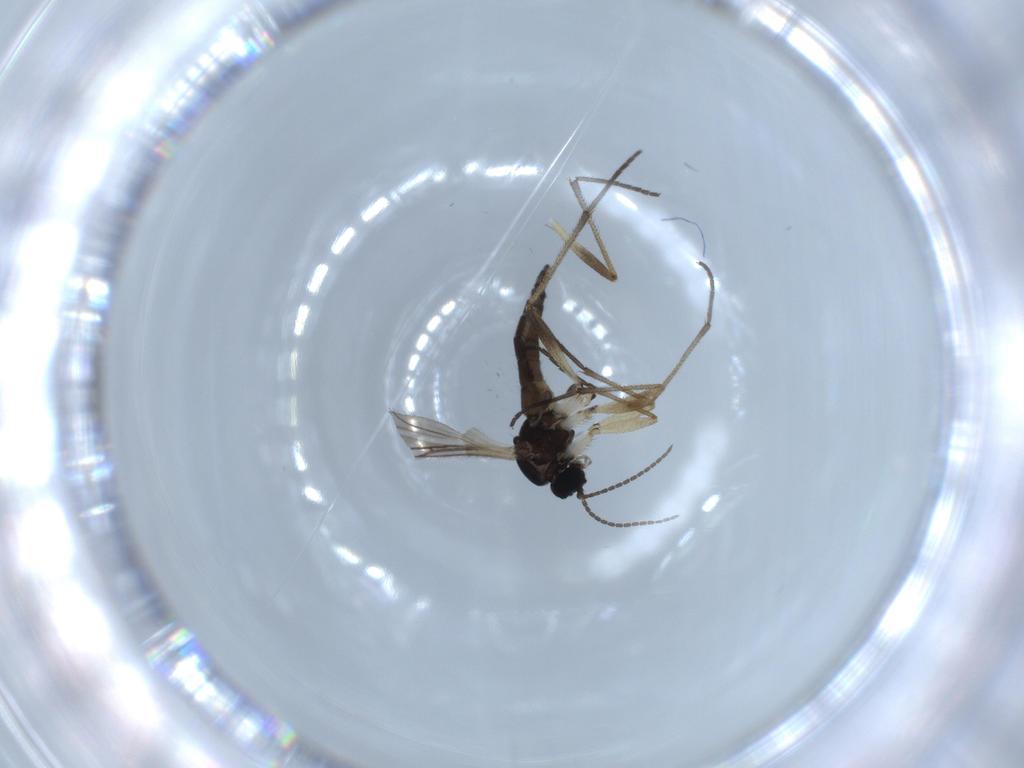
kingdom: Animalia
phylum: Arthropoda
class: Insecta
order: Diptera
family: Sciaridae
